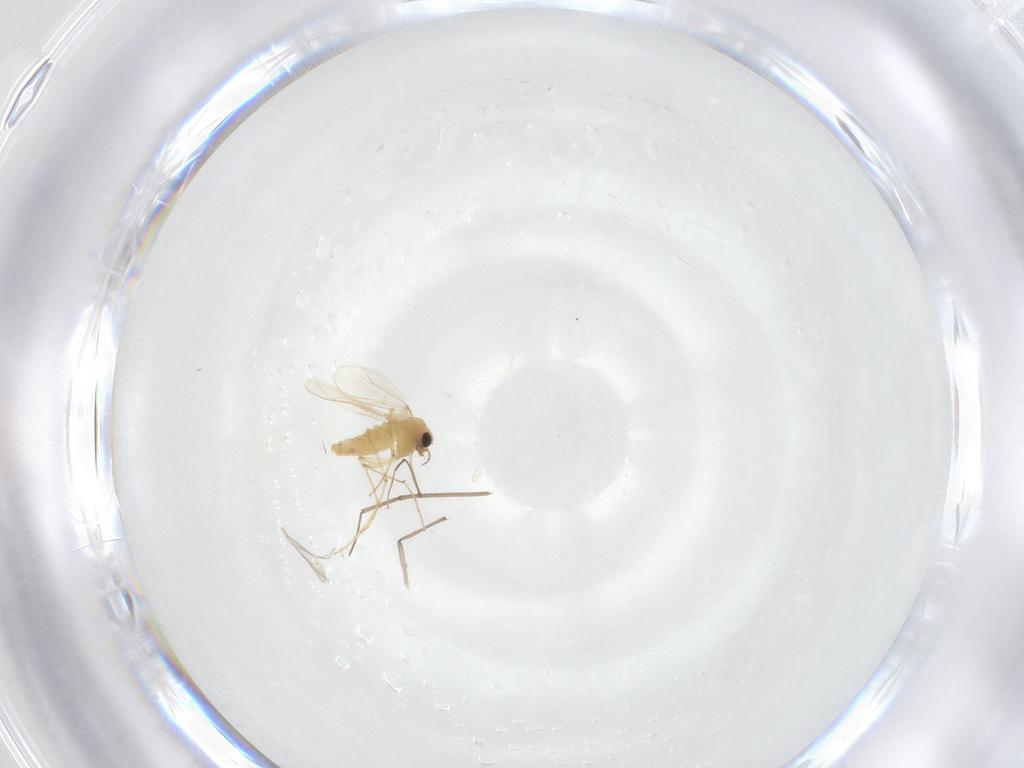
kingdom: Animalia
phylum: Arthropoda
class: Insecta
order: Diptera
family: Chironomidae
